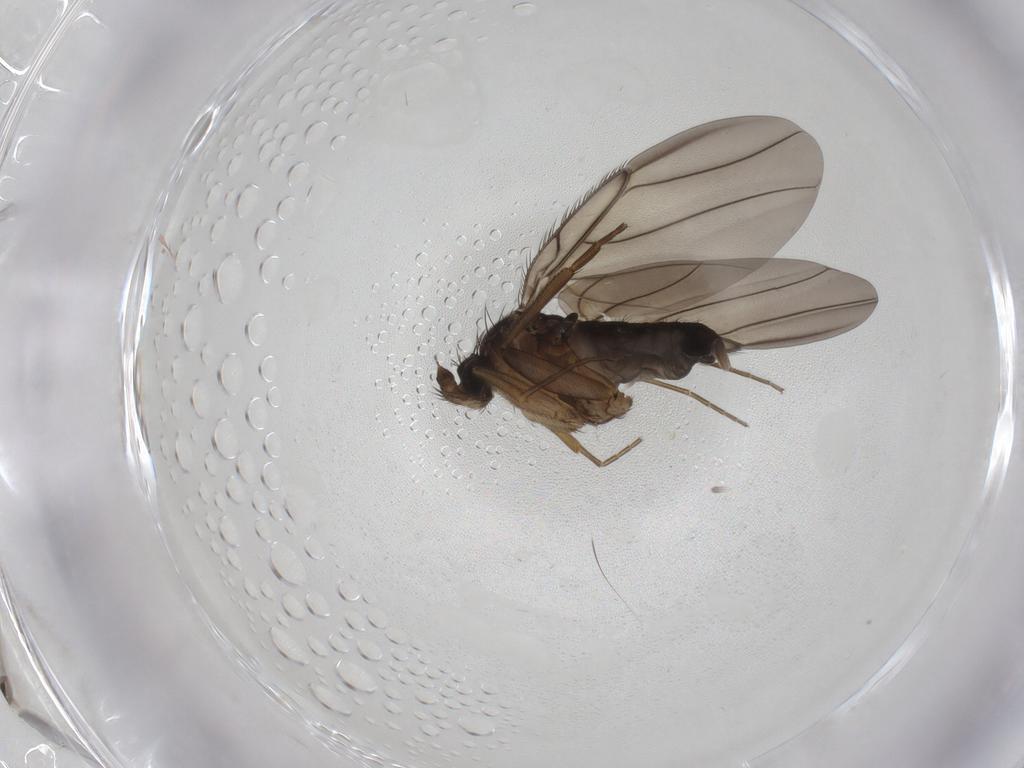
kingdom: Animalia
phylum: Arthropoda
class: Insecta
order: Diptera
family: Phoridae
